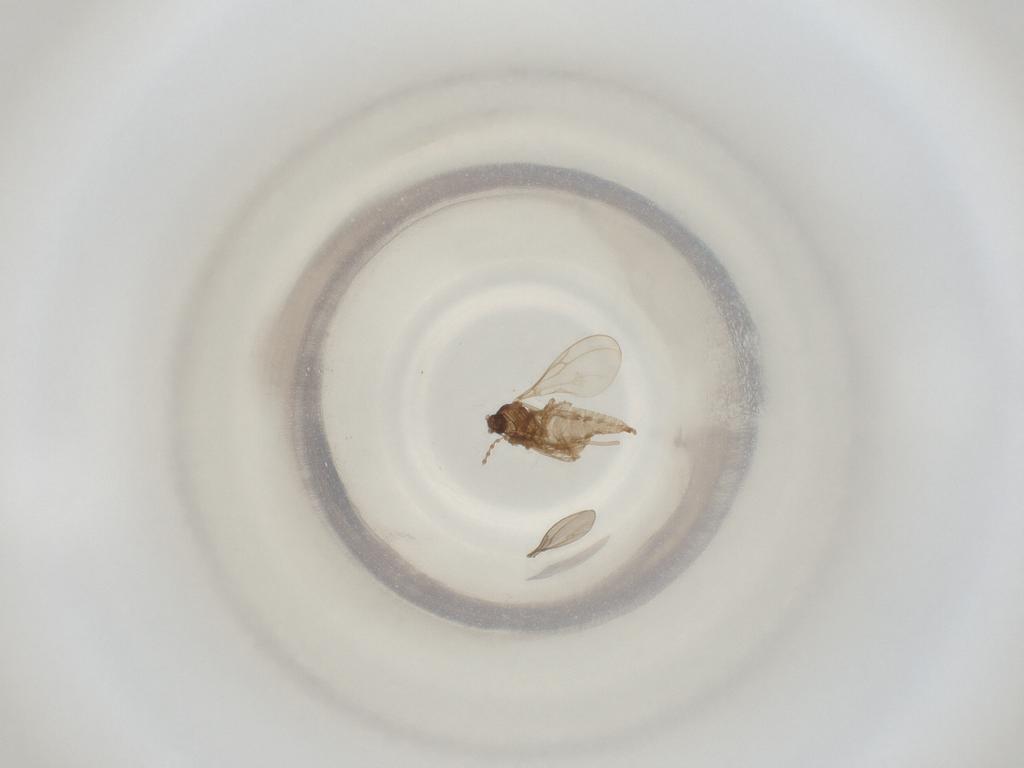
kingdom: Animalia
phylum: Arthropoda
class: Insecta
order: Diptera
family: Cecidomyiidae
